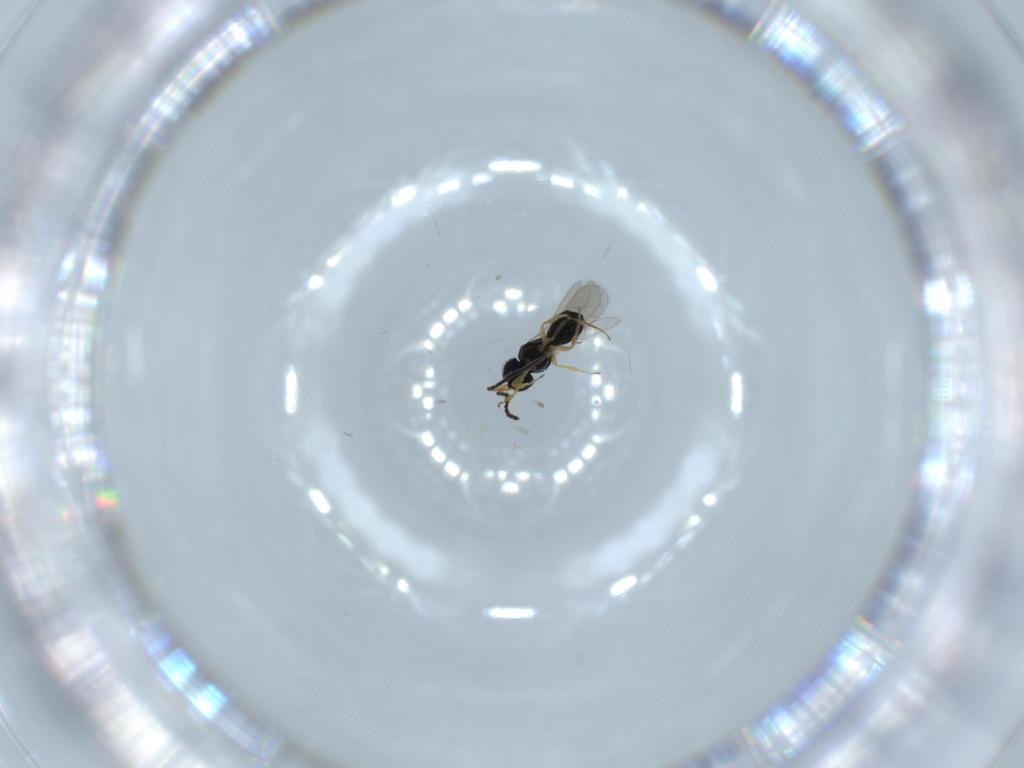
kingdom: Animalia
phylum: Arthropoda
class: Insecta
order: Hymenoptera
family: Scelionidae
